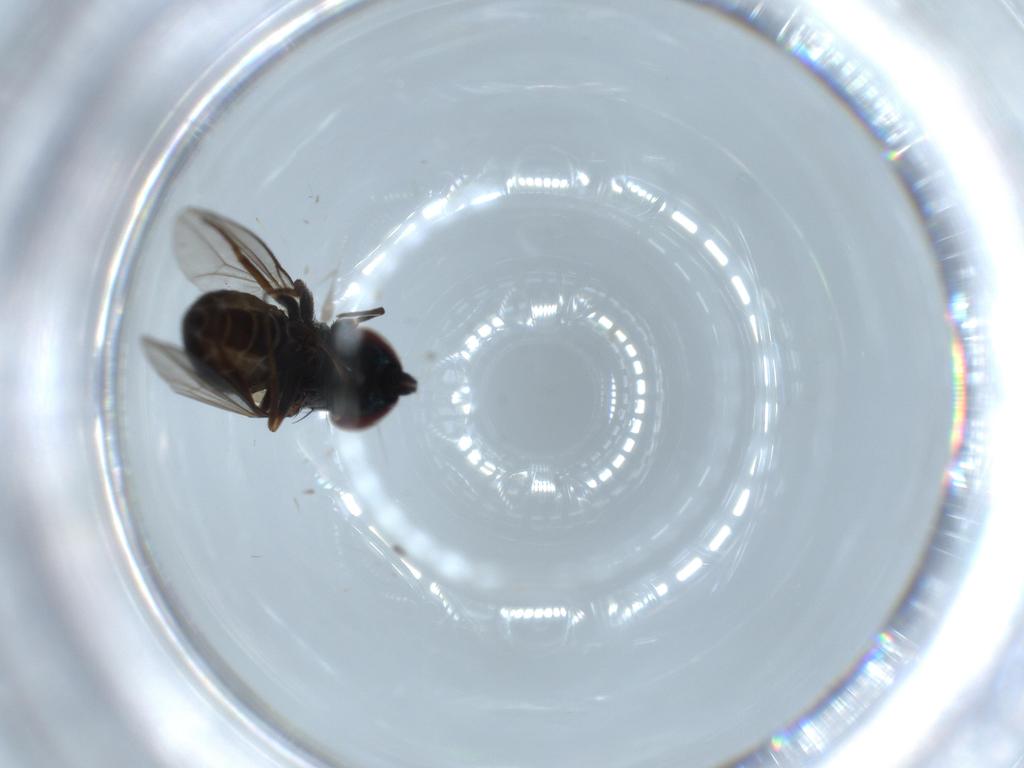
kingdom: Animalia
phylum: Arthropoda
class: Insecta
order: Diptera
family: Dolichopodidae
